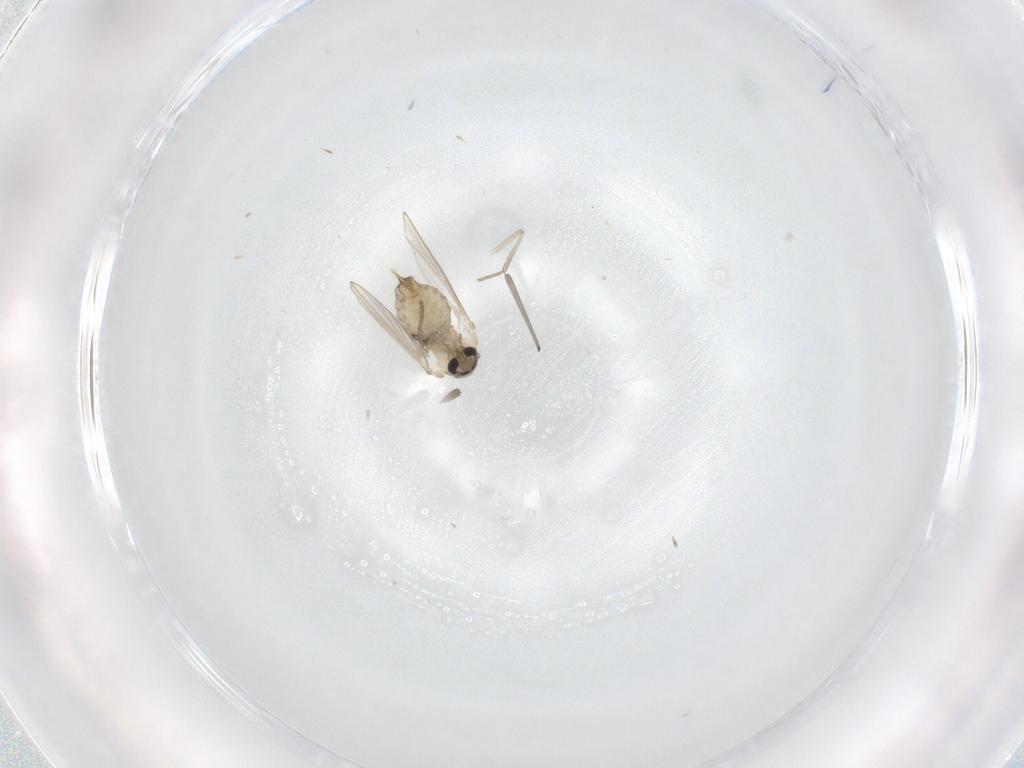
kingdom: Animalia
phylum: Arthropoda
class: Insecta
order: Diptera
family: Psychodidae
